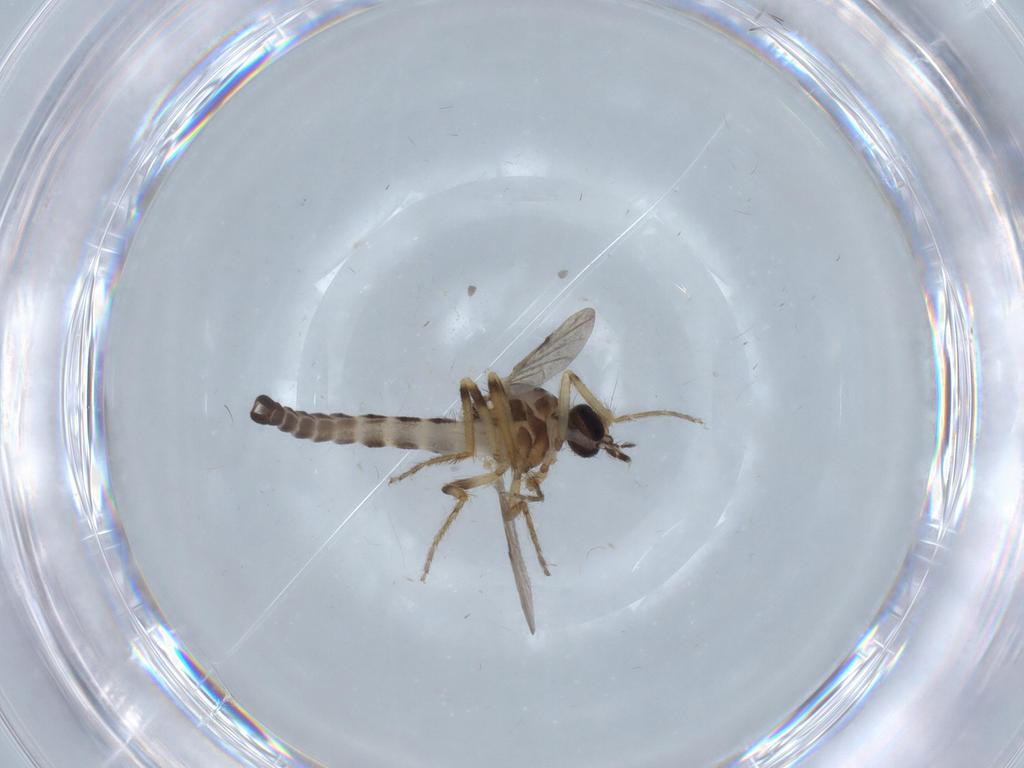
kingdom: Animalia
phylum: Arthropoda
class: Insecta
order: Diptera
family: Ceratopogonidae
